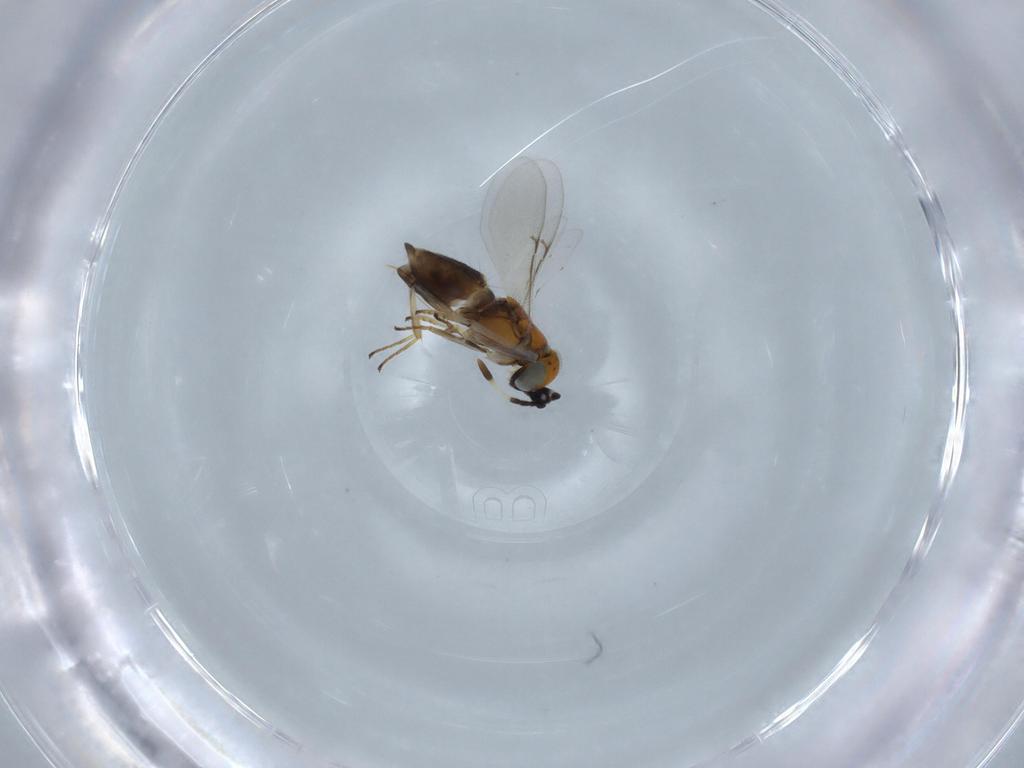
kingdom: Animalia
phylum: Arthropoda
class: Insecta
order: Hymenoptera
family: Encyrtidae
